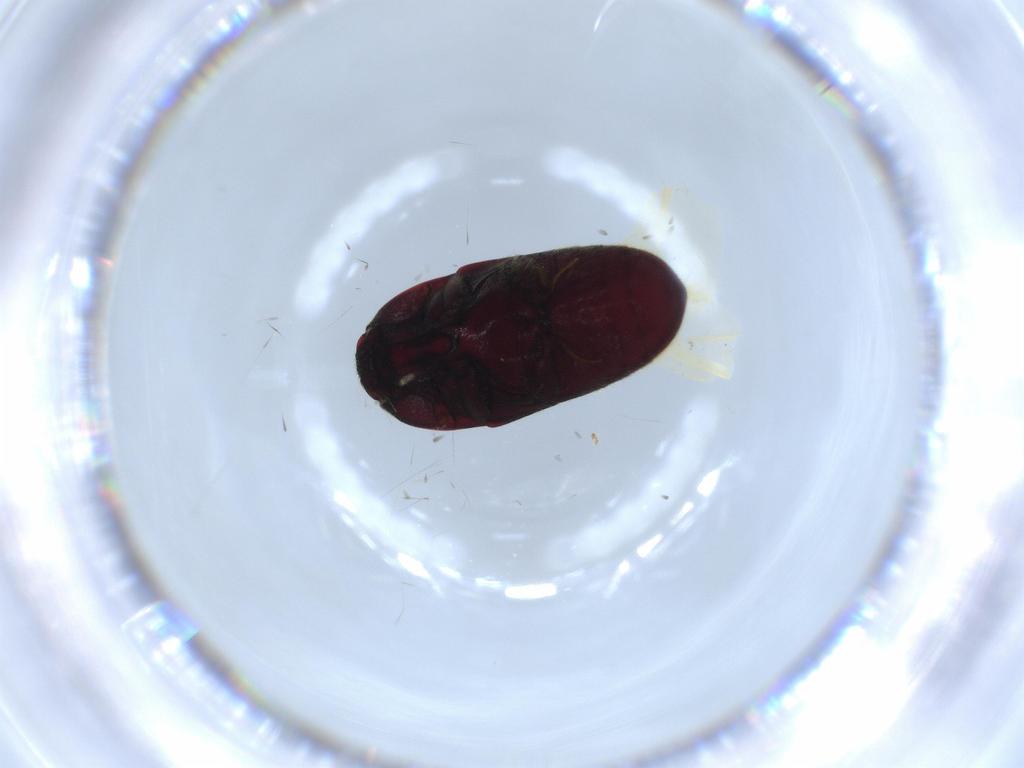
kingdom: Animalia
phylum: Arthropoda
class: Insecta
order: Coleoptera
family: Throscidae
